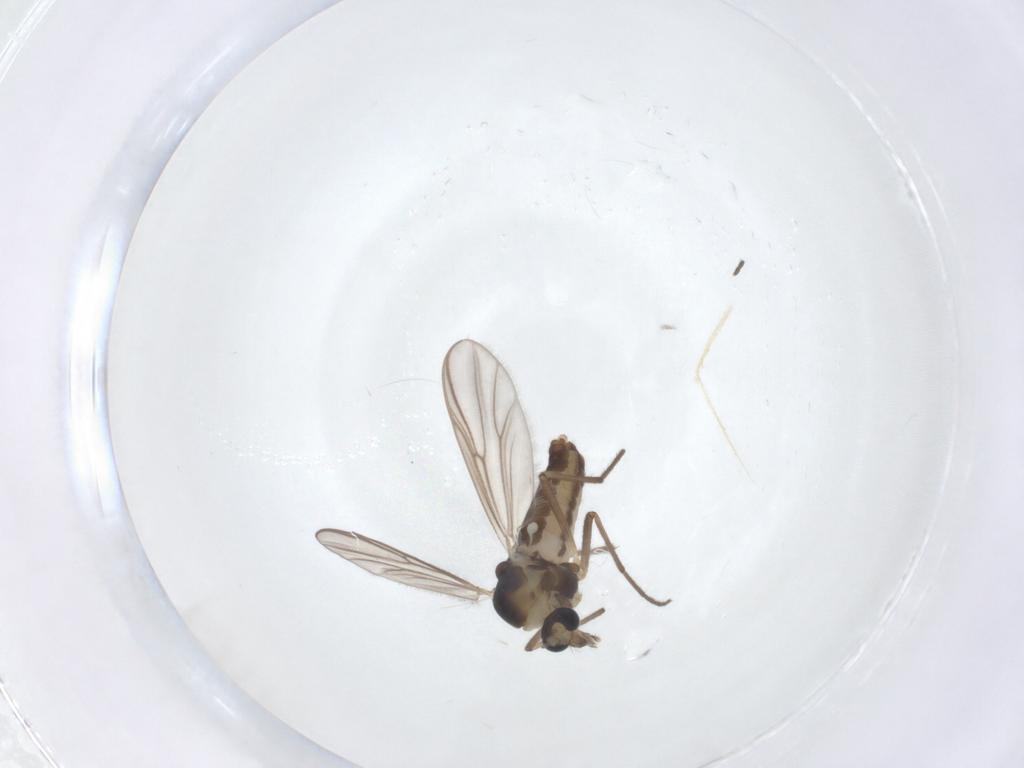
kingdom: Animalia
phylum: Arthropoda
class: Insecta
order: Diptera
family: Chironomidae
